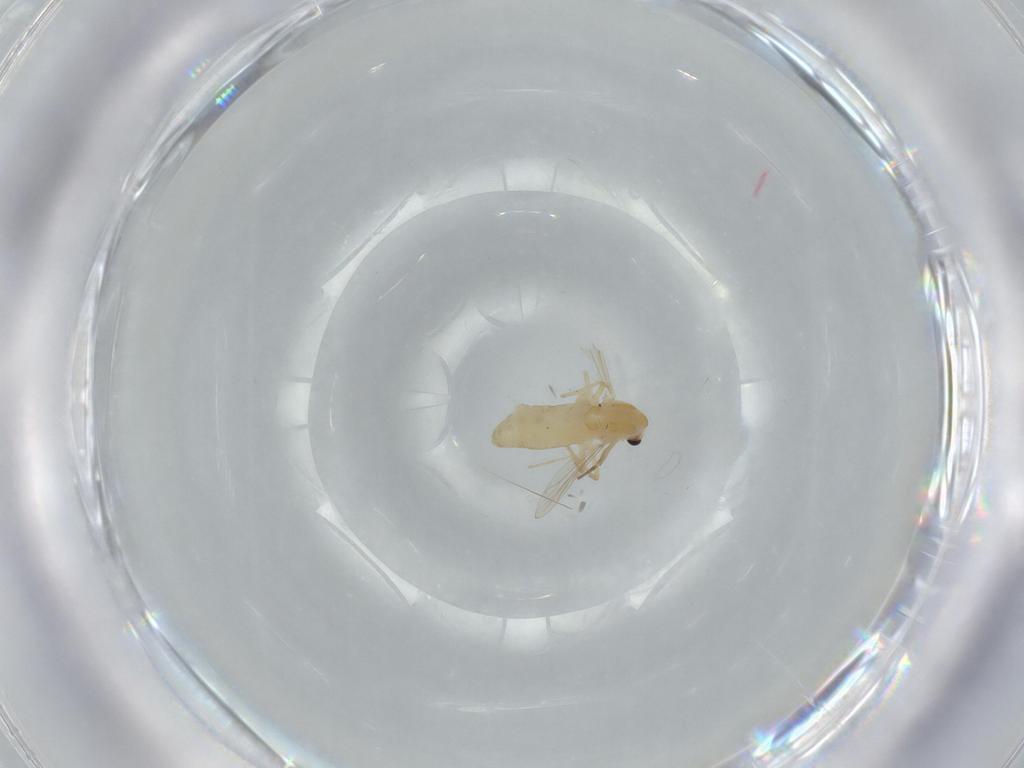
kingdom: Animalia
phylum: Arthropoda
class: Insecta
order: Diptera
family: Chironomidae
